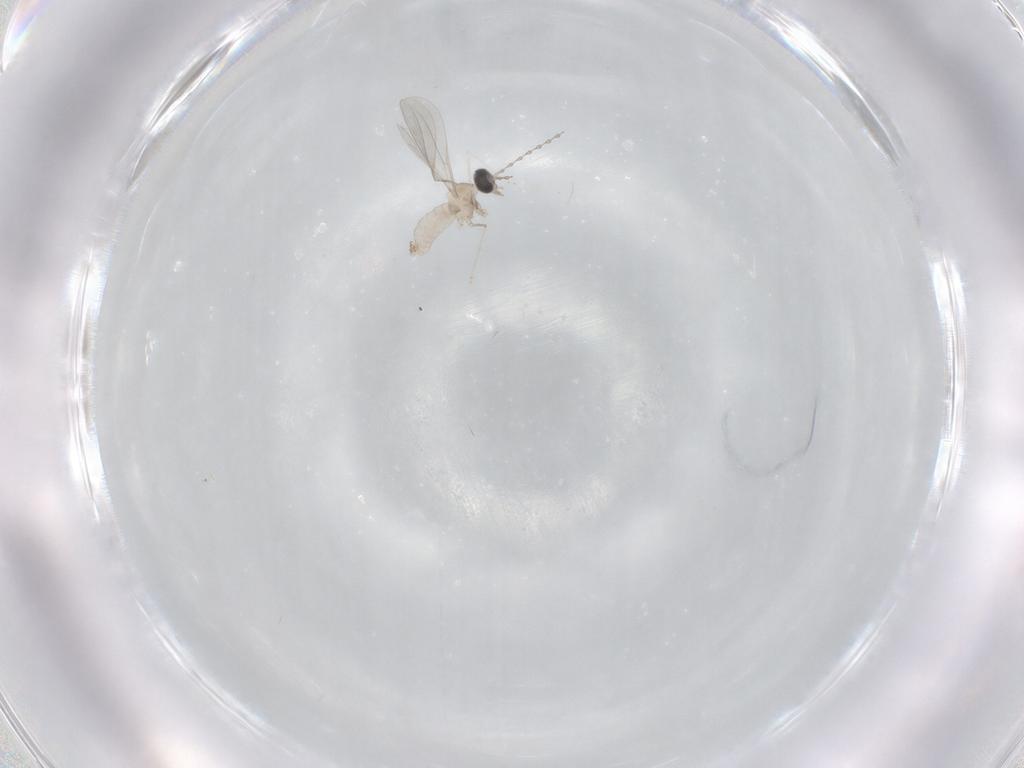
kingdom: Animalia
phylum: Arthropoda
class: Insecta
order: Diptera
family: Cecidomyiidae
